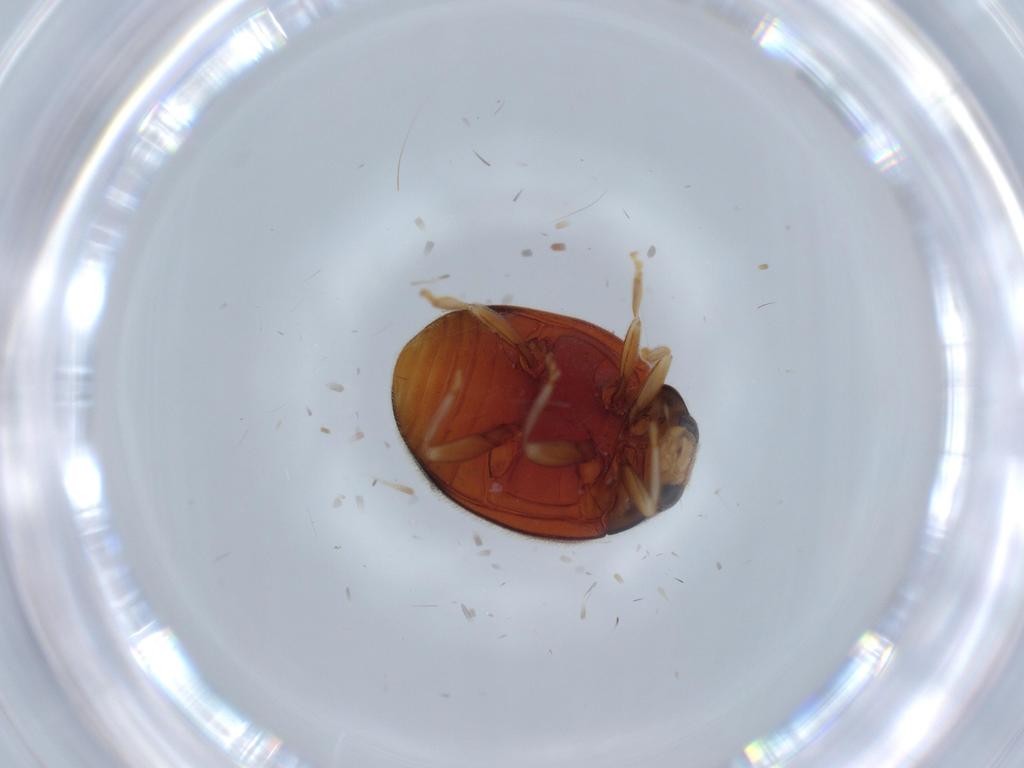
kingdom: Animalia
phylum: Arthropoda
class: Insecta
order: Coleoptera
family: Coccinellidae
